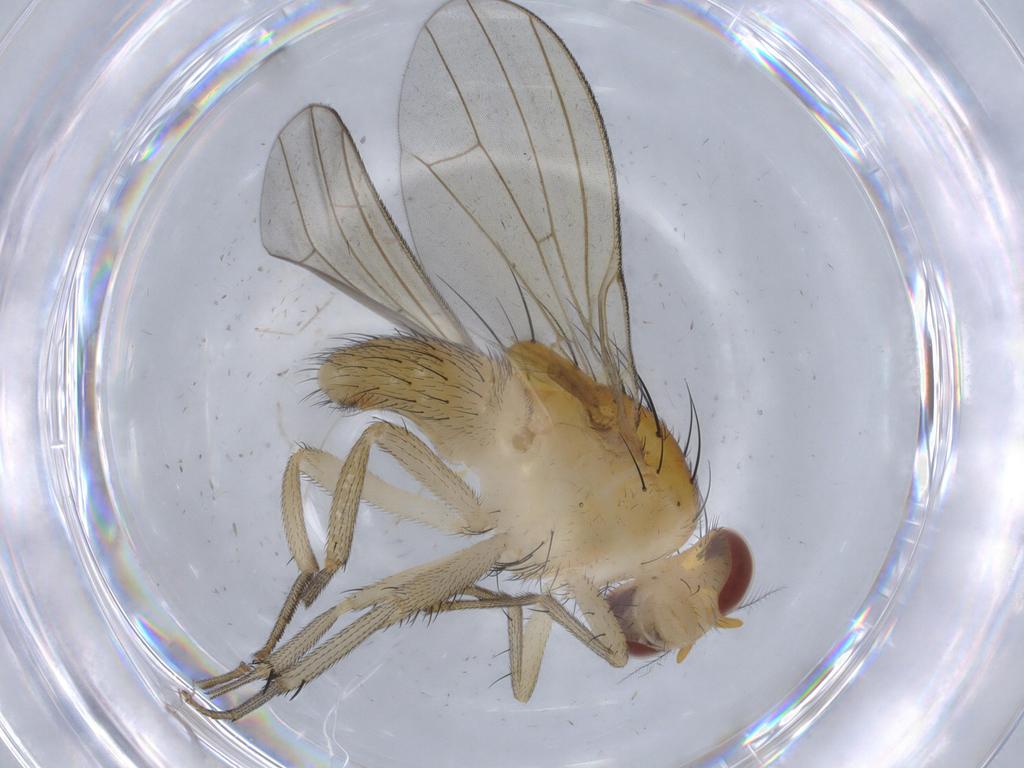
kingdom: Animalia
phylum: Arthropoda
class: Insecta
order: Diptera
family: Chironomidae
